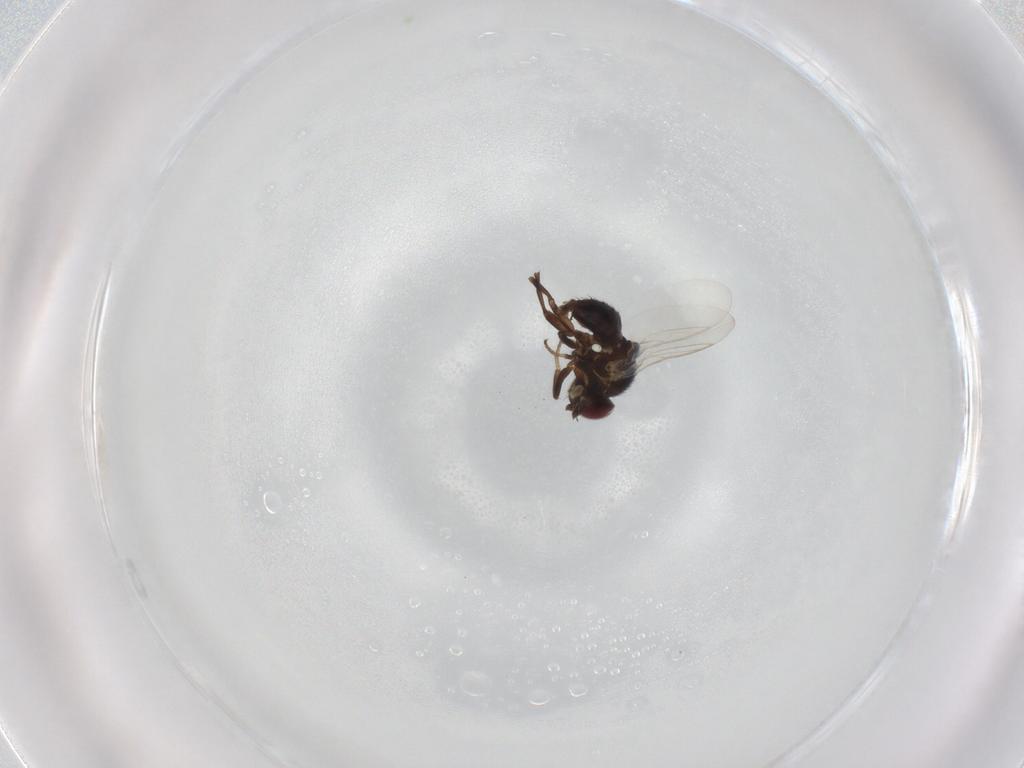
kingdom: Animalia
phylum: Arthropoda
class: Insecta
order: Diptera
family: Agromyzidae
